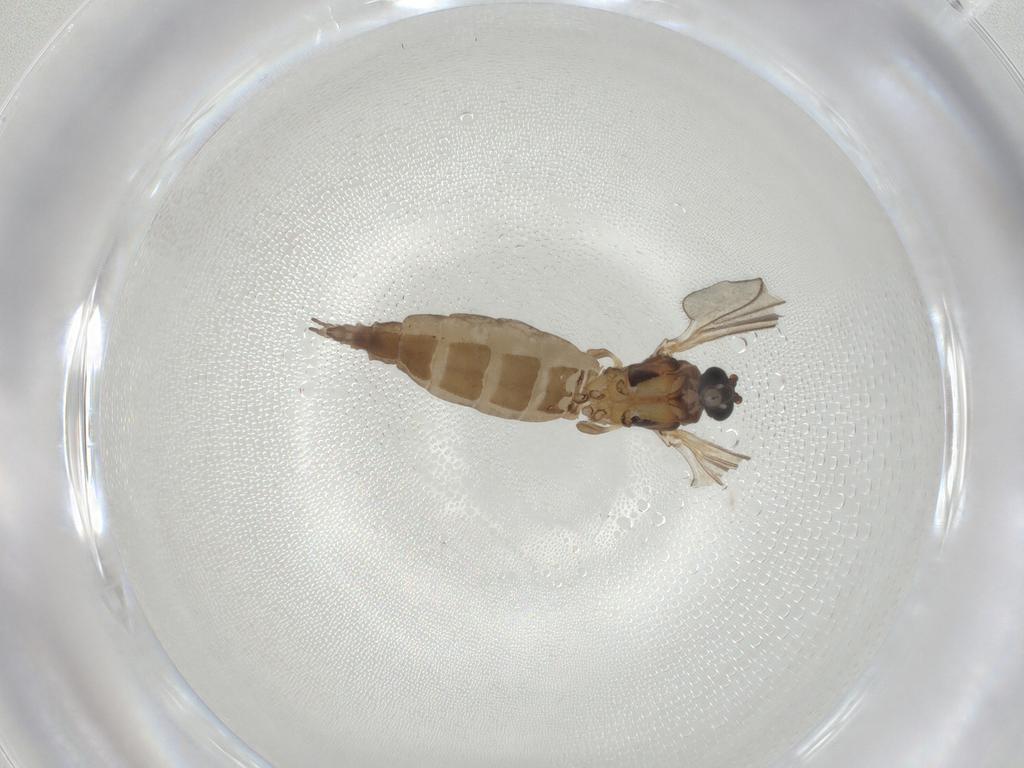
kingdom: Animalia
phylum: Arthropoda
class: Insecta
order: Diptera
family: Sciaridae
